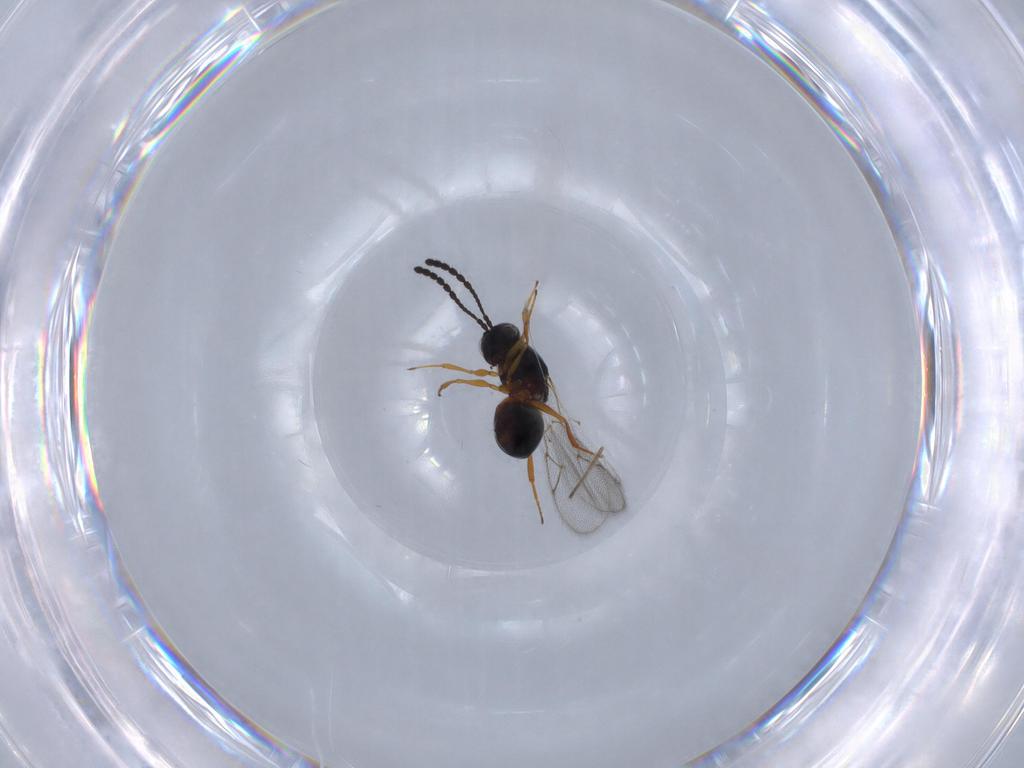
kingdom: Animalia
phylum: Arthropoda
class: Insecta
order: Hymenoptera
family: Figitidae
